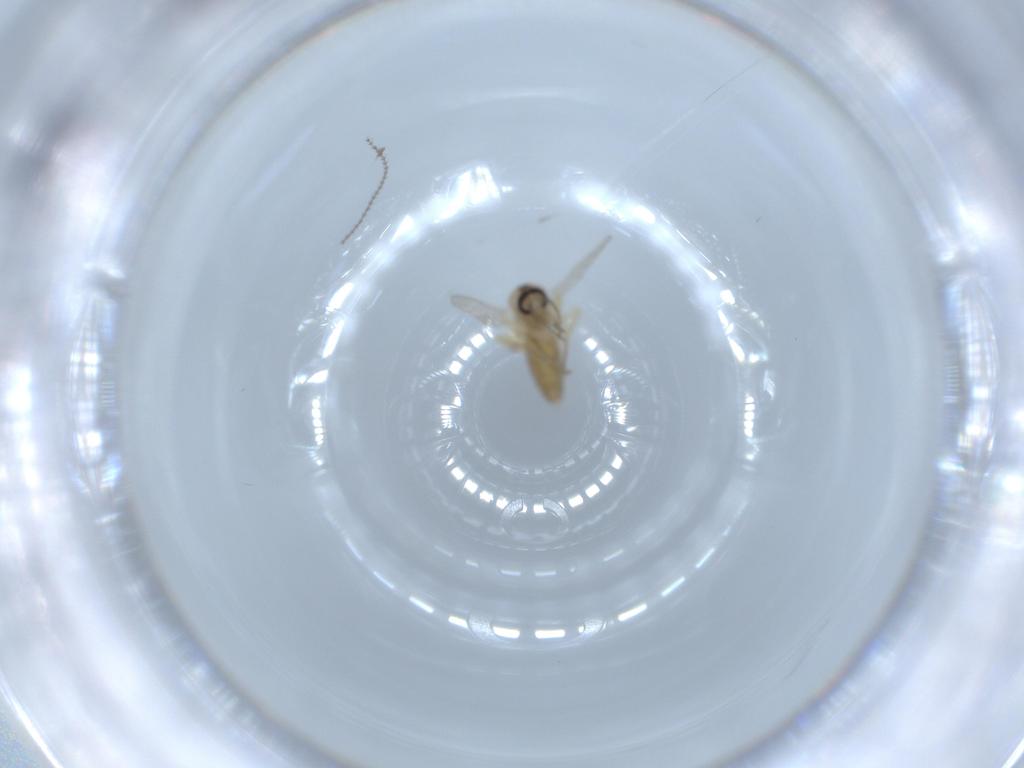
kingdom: Animalia
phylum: Arthropoda
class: Insecta
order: Diptera
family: Ceratopogonidae
